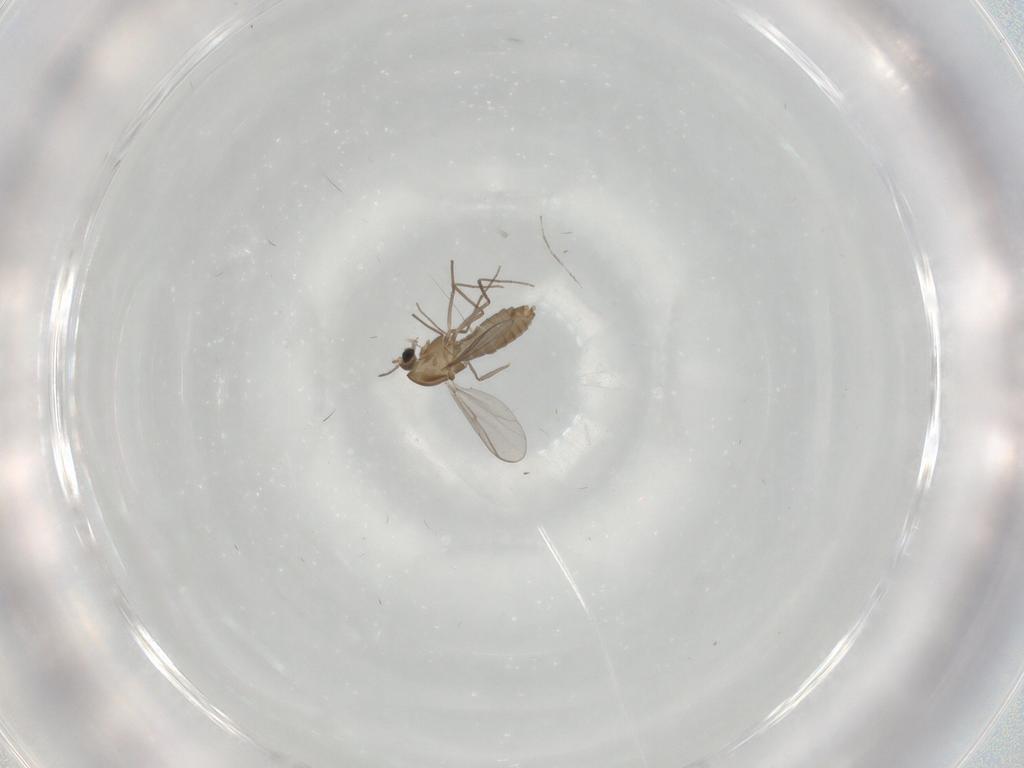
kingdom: Animalia
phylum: Arthropoda
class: Insecta
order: Diptera
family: Chironomidae
